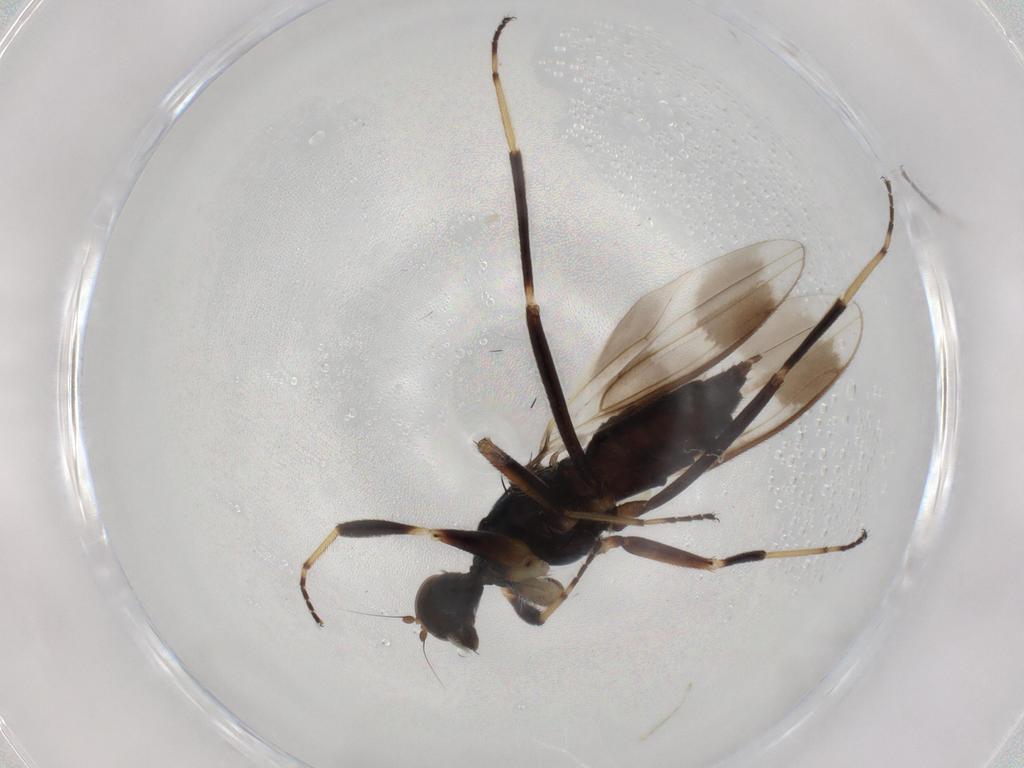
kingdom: Animalia
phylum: Arthropoda
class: Insecta
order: Diptera
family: Hybotidae
